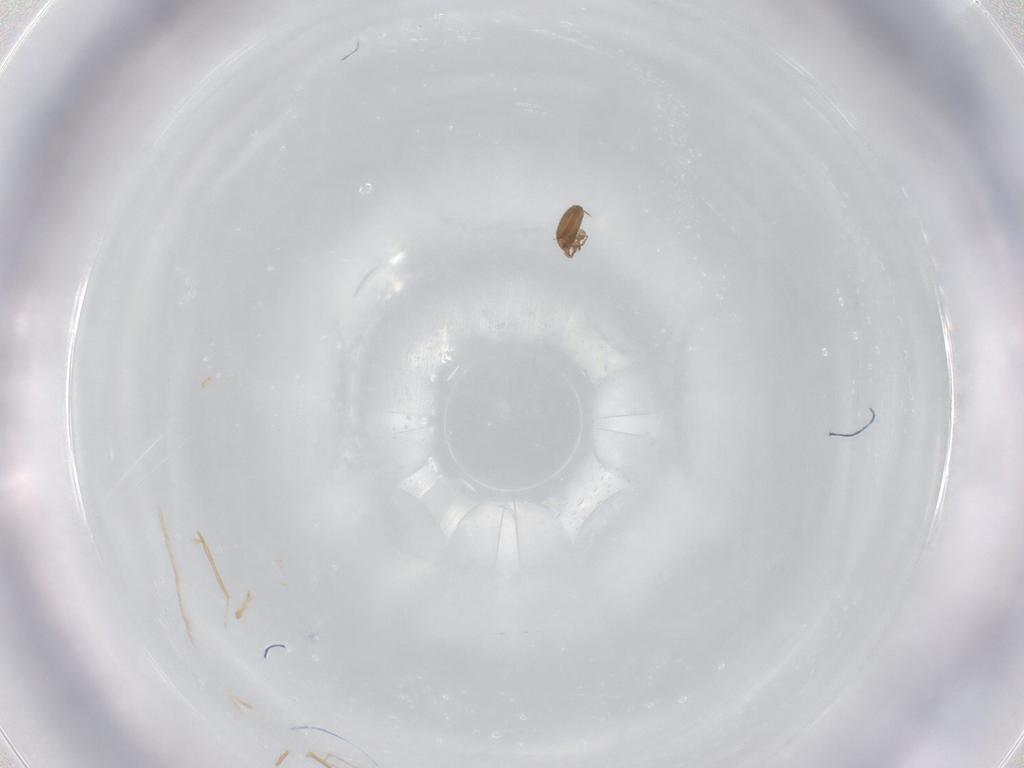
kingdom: Animalia
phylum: Arthropoda
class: Arachnida
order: Sarcoptiformes
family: Oribatulidae
